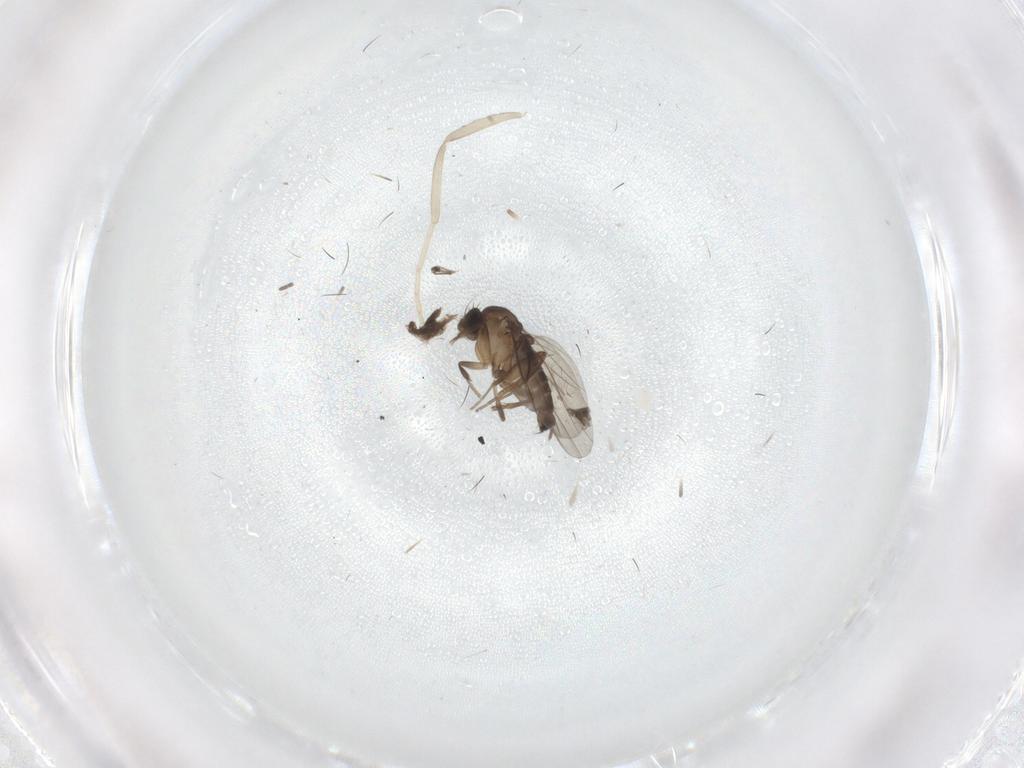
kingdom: Animalia
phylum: Arthropoda
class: Insecta
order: Diptera
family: Sciaridae
